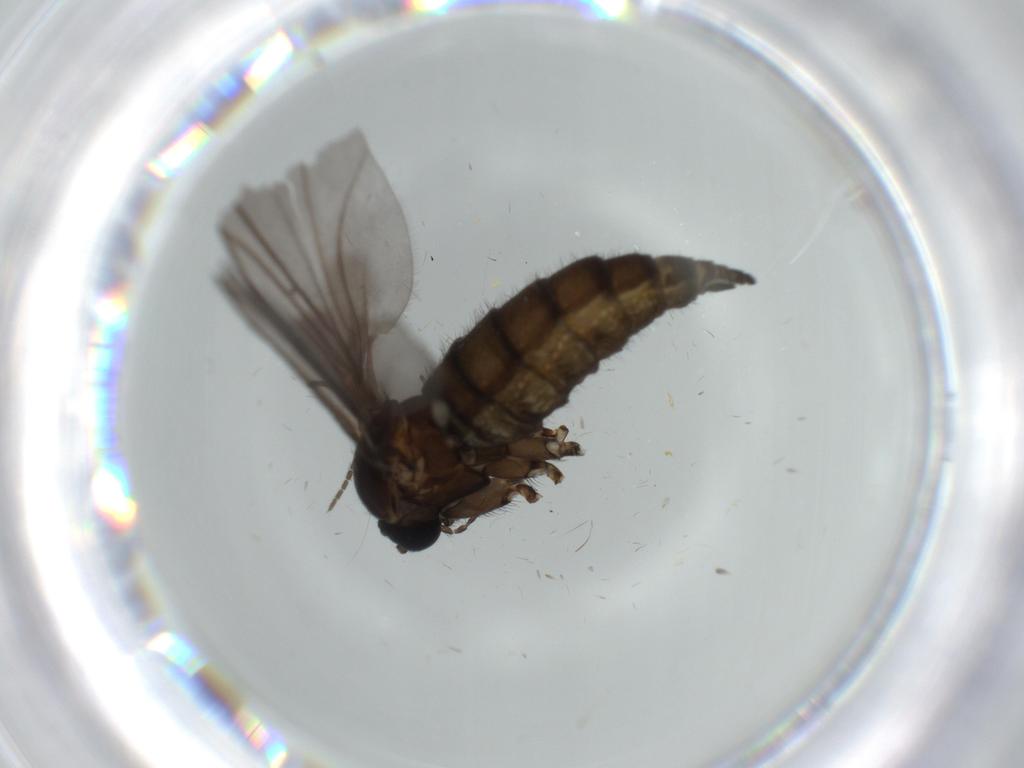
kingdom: Animalia
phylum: Arthropoda
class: Insecta
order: Diptera
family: Sciaridae
